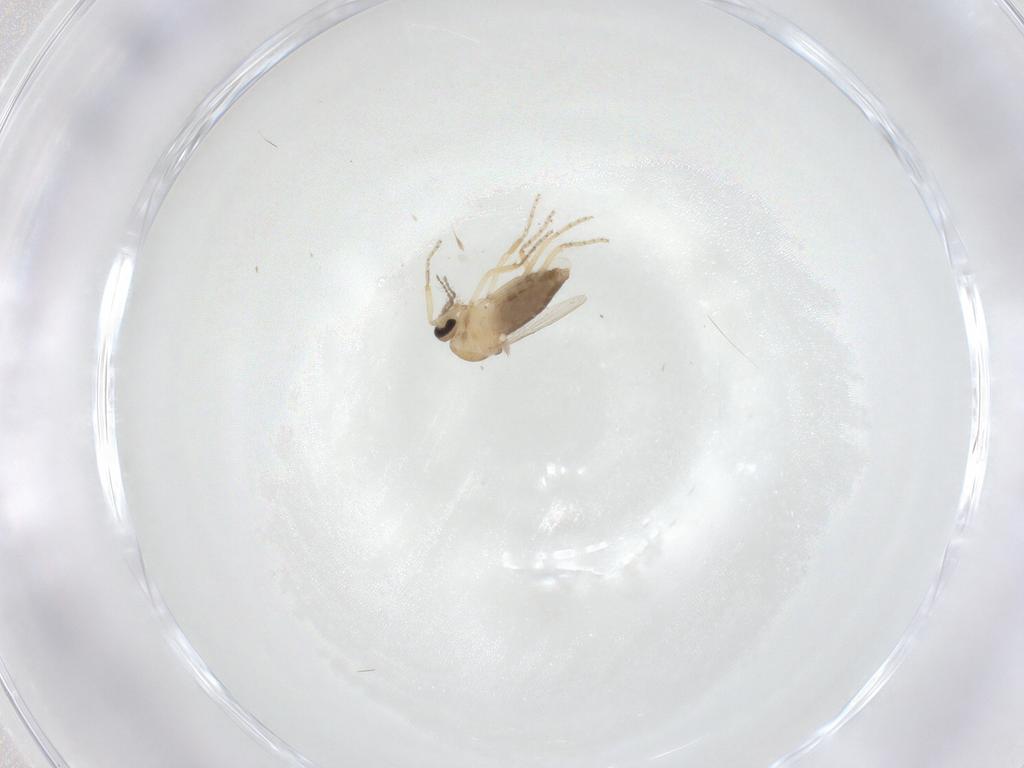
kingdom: Animalia
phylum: Arthropoda
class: Insecta
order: Diptera
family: Ceratopogonidae
